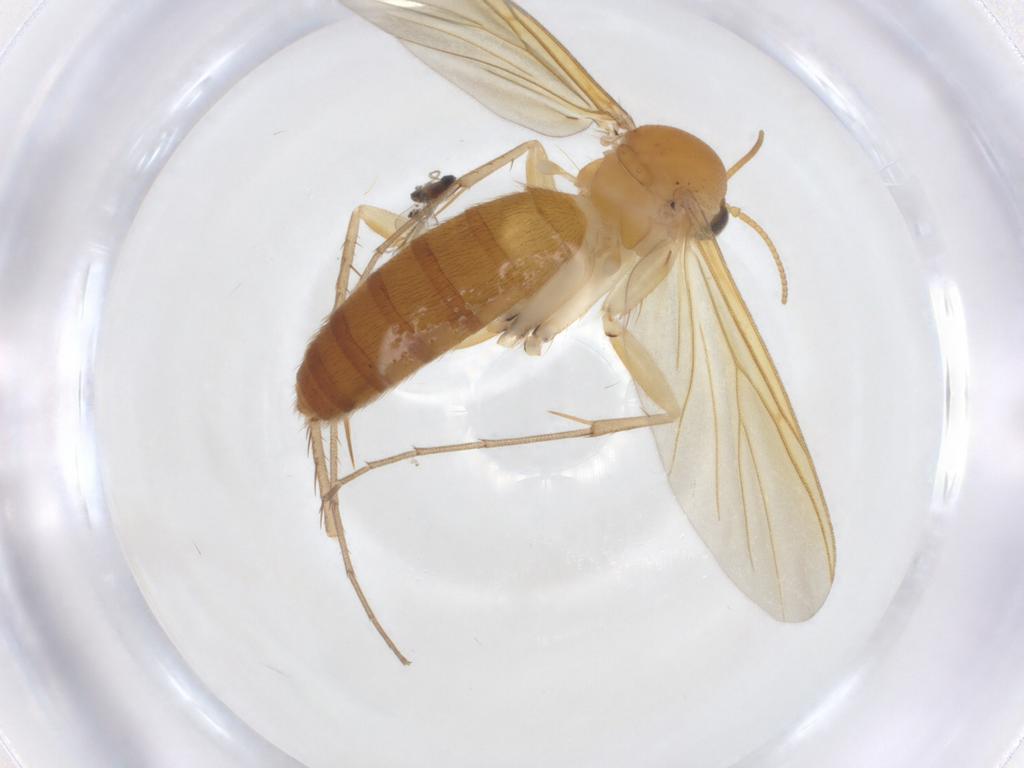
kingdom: Animalia
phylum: Arthropoda
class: Insecta
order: Diptera
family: Mycetophilidae
